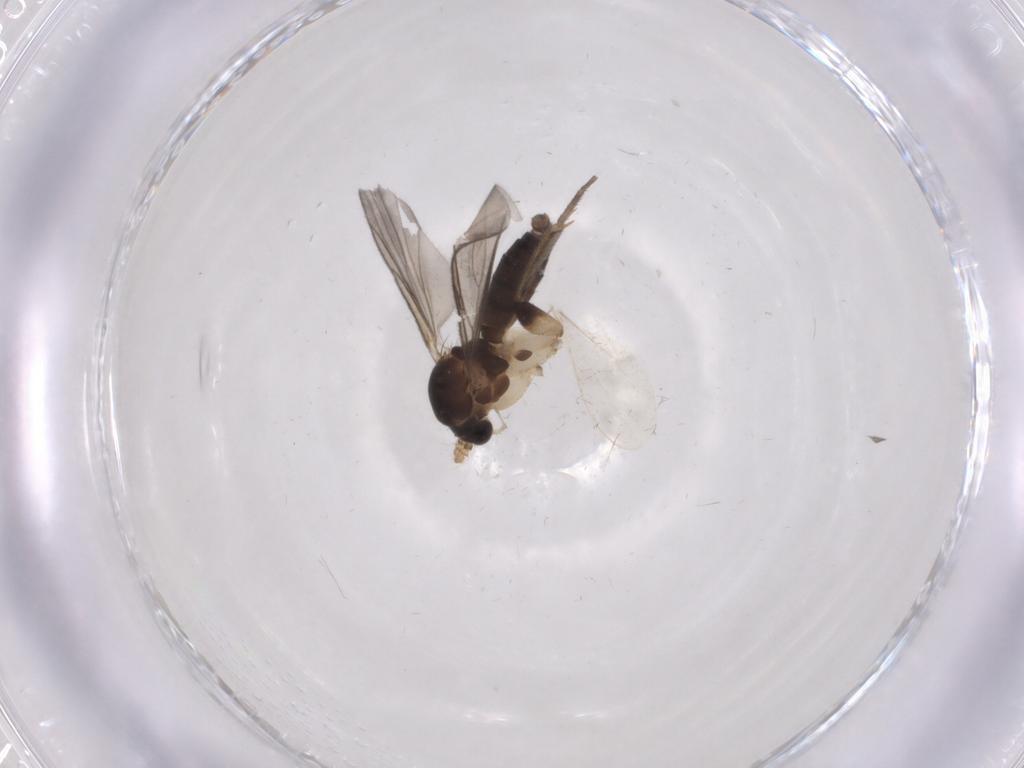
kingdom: Animalia
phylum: Arthropoda
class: Insecta
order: Diptera
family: Mycetophilidae
